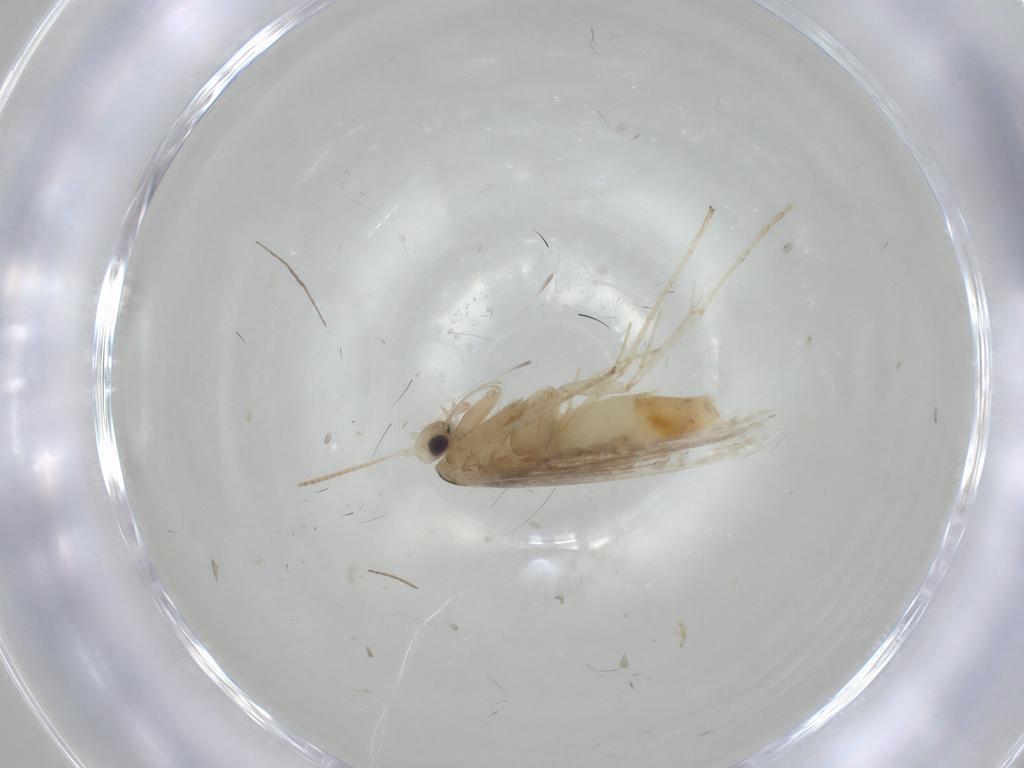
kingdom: Animalia
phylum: Arthropoda
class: Insecta
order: Lepidoptera
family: Gracillariidae
